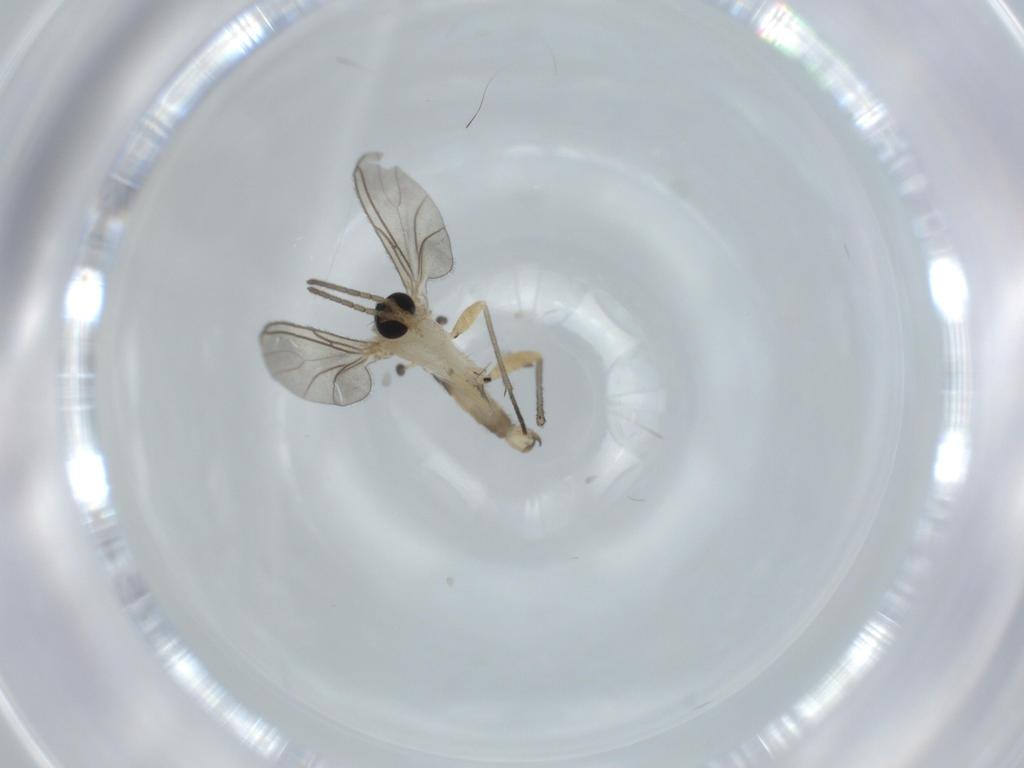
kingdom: Animalia
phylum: Arthropoda
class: Insecta
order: Diptera
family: Sciaridae
